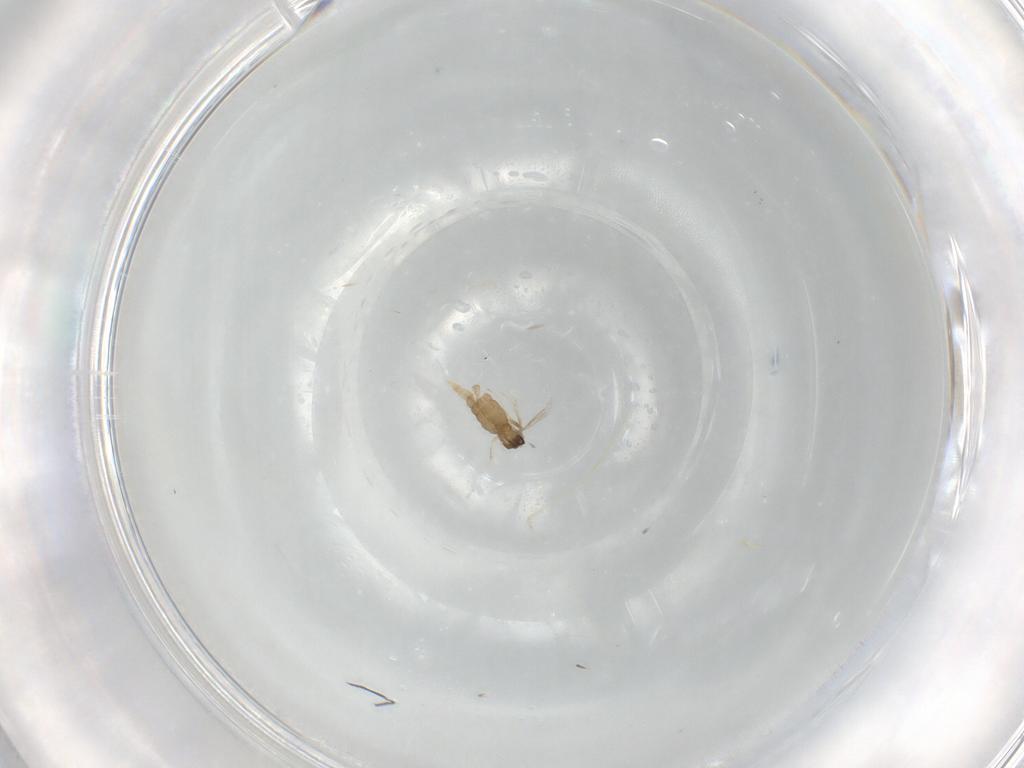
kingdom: Animalia
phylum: Arthropoda
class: Insecta
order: Diptera
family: Cecidomyiidae
